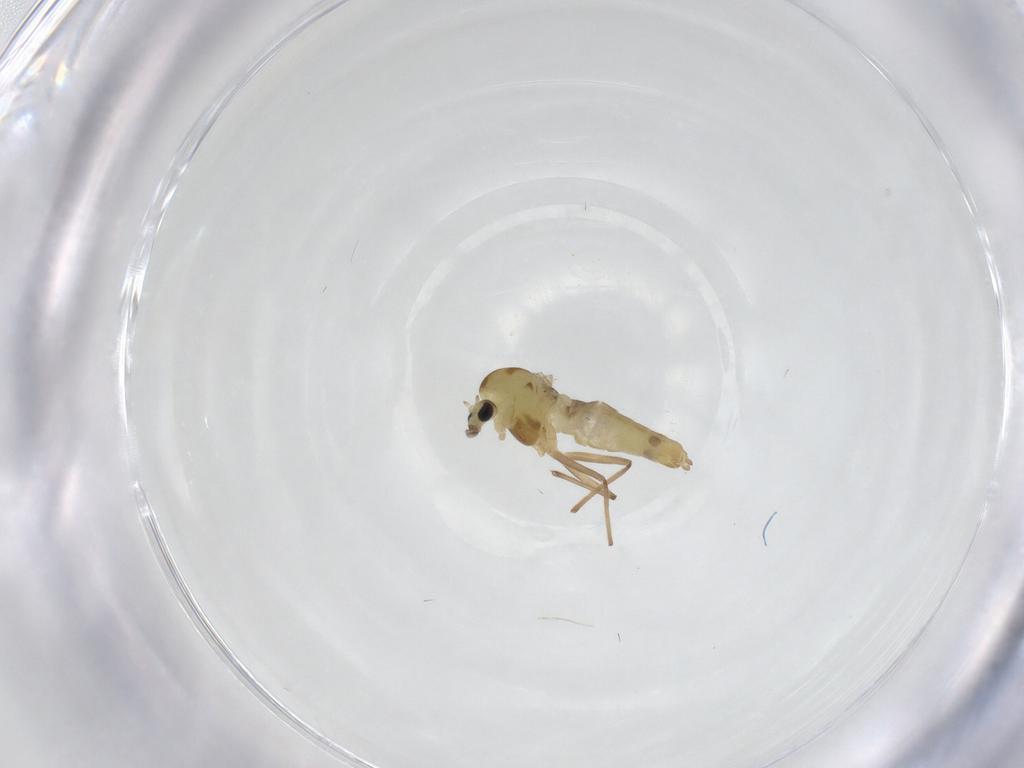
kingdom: Animalia
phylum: Arthropoda
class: Insecta
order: Diptera
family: Chironomidae
